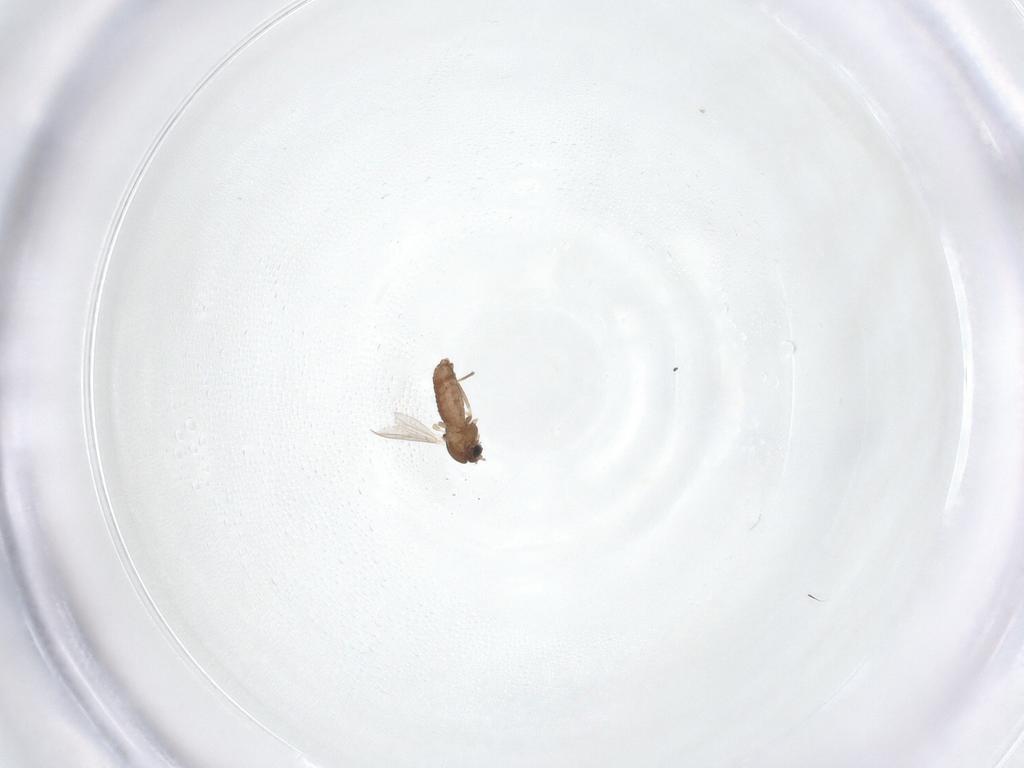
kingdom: Animalia
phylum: Arthropoda
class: Insecta
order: Diptera
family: Chironomidae
